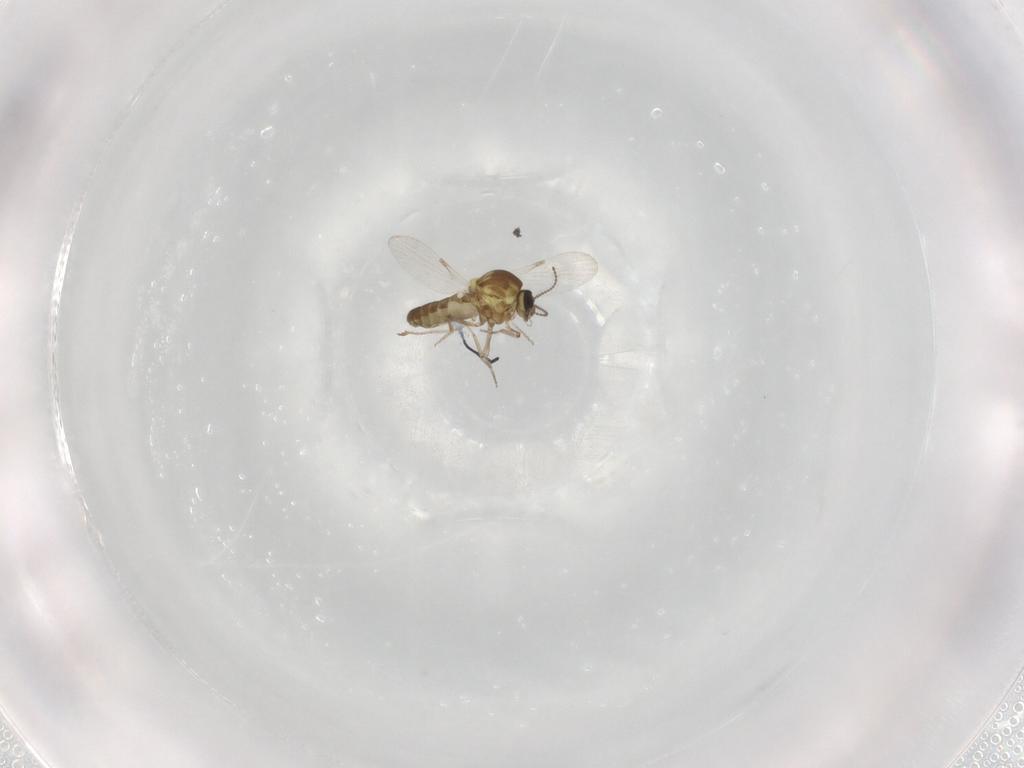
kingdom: Animalia
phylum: Arthropoda
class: Insecta
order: Diptera
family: Ceratopogonidae
